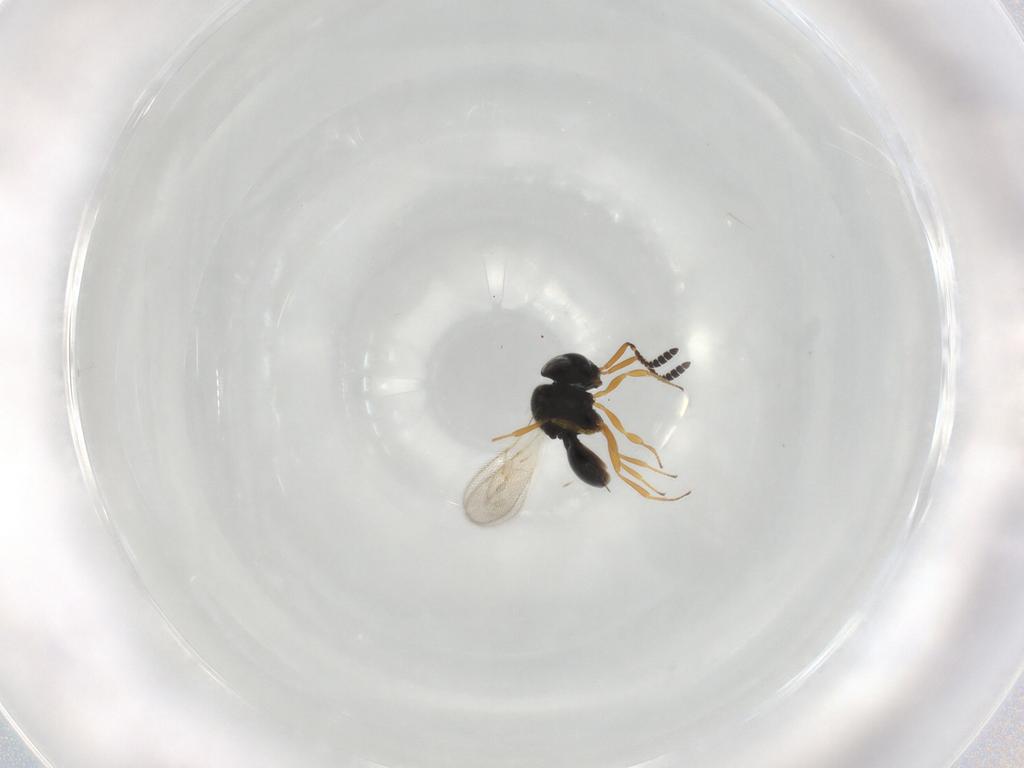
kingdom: Animalia
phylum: Arthropoda
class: Insecta
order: Hymenoptera
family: Scelionidae
